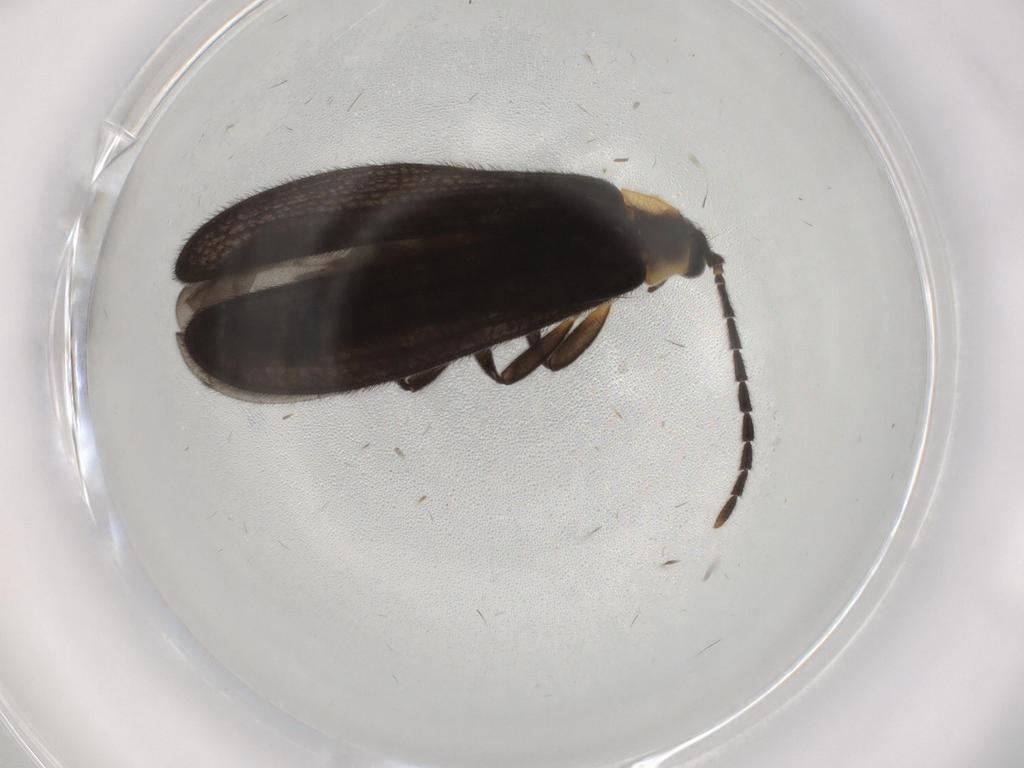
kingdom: Animalia
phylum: Arthropoda
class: Insecta
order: Coleoptera
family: Lycidae
